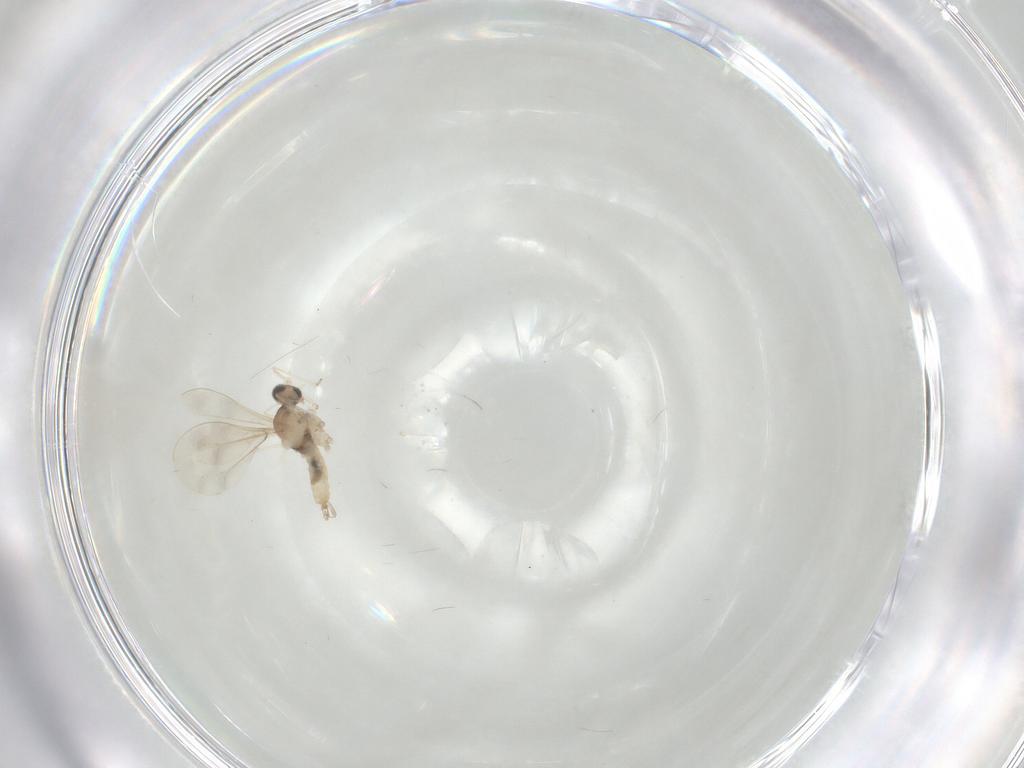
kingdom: Animalia
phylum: Arthropoda
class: Insecta
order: Diptera
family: Cecidomyiidae
